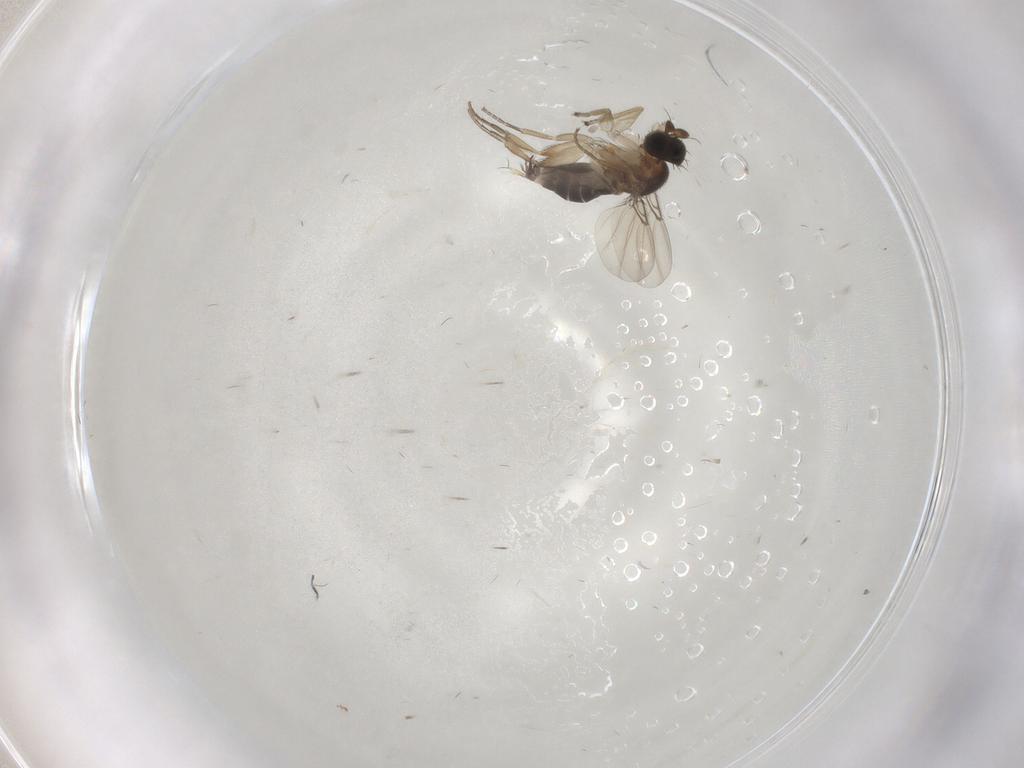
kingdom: Animalia
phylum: Arthropoda
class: Insecta
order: Diptera
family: Phoridae
